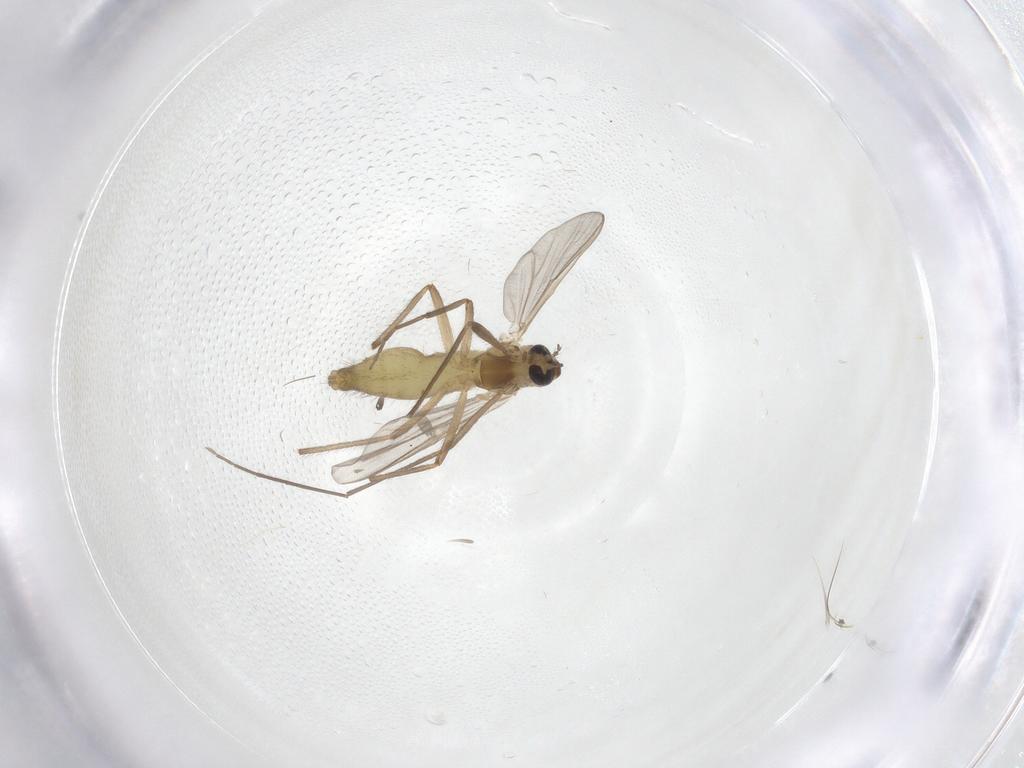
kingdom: Animalia
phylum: Arthropoda
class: Insecta
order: Diptera
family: Chironomidae
